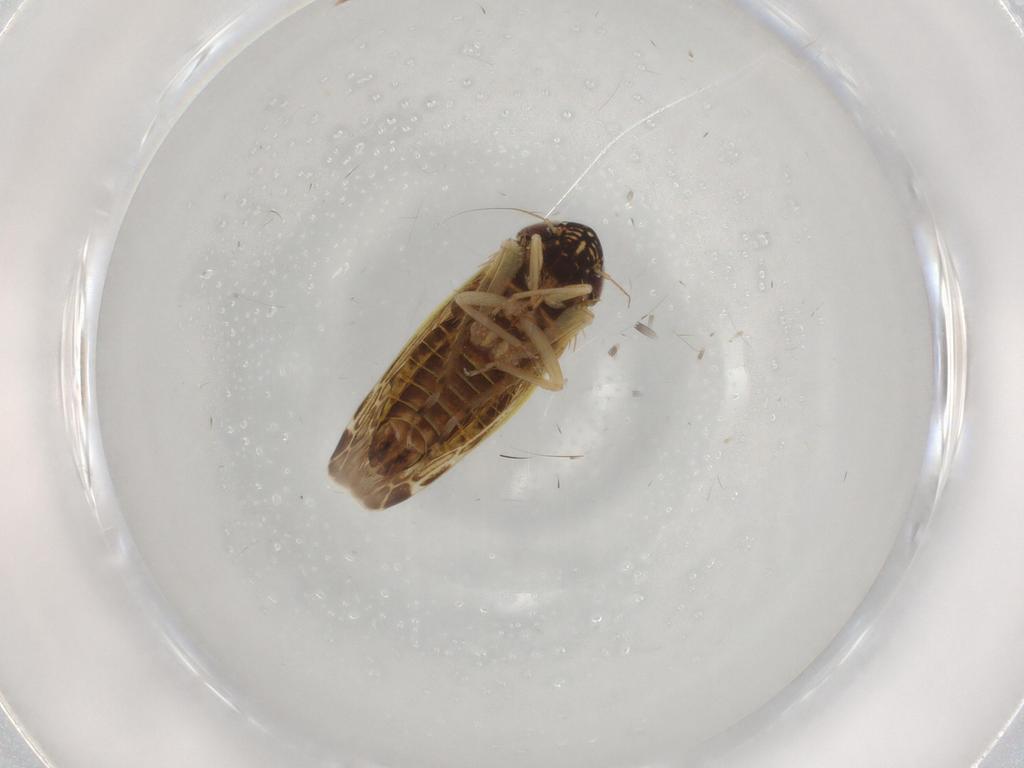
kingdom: Animalia
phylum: Arthropoda
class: Insecta
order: Hemiptera
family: Cicadellidae
